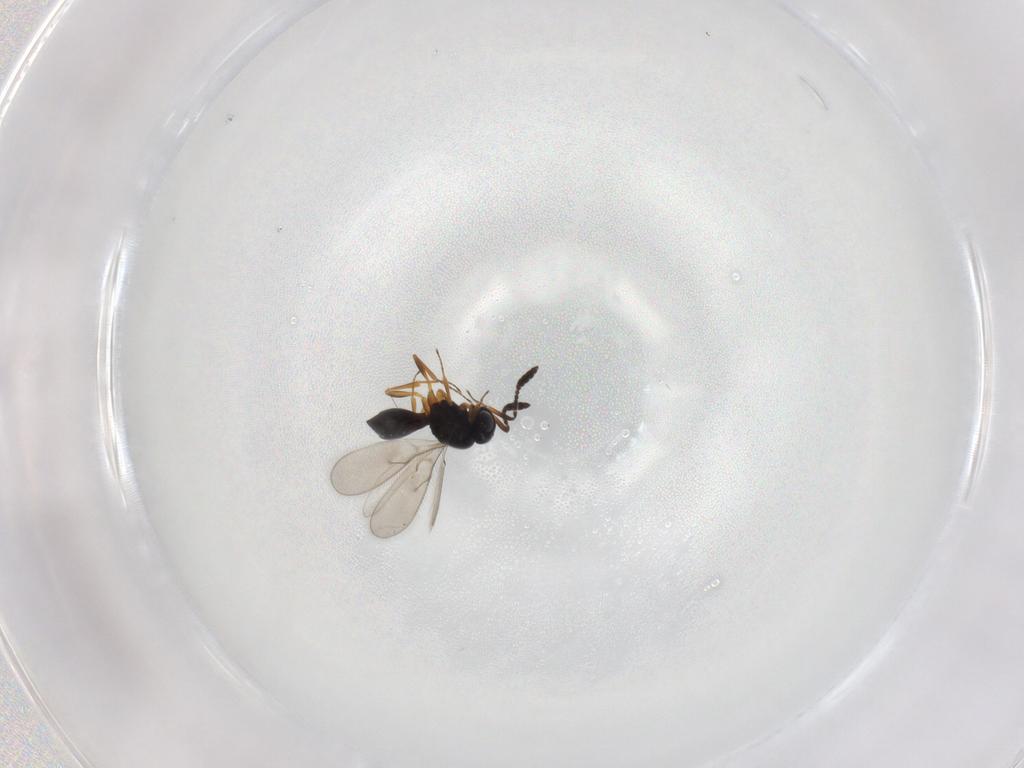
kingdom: Animalia
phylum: Arthropoda
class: Insecta
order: Hymenoptera
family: Scelionidae
